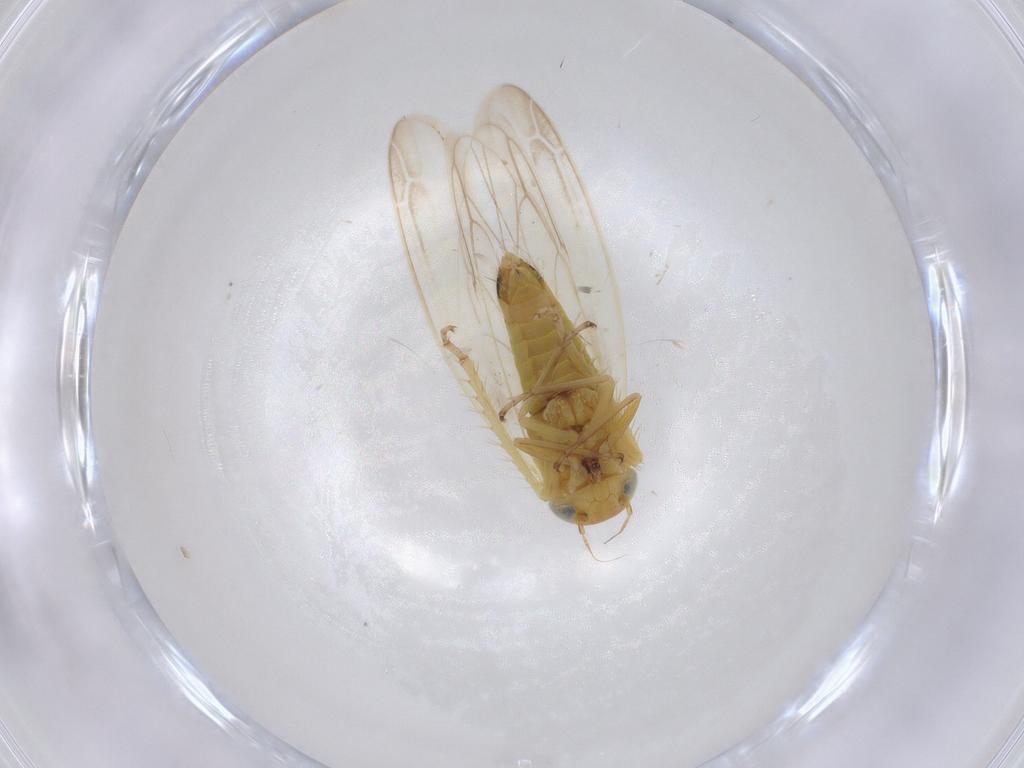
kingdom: Animalia
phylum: Arthropoda
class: Insecta
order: Hemiptera
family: Cicadellidae
